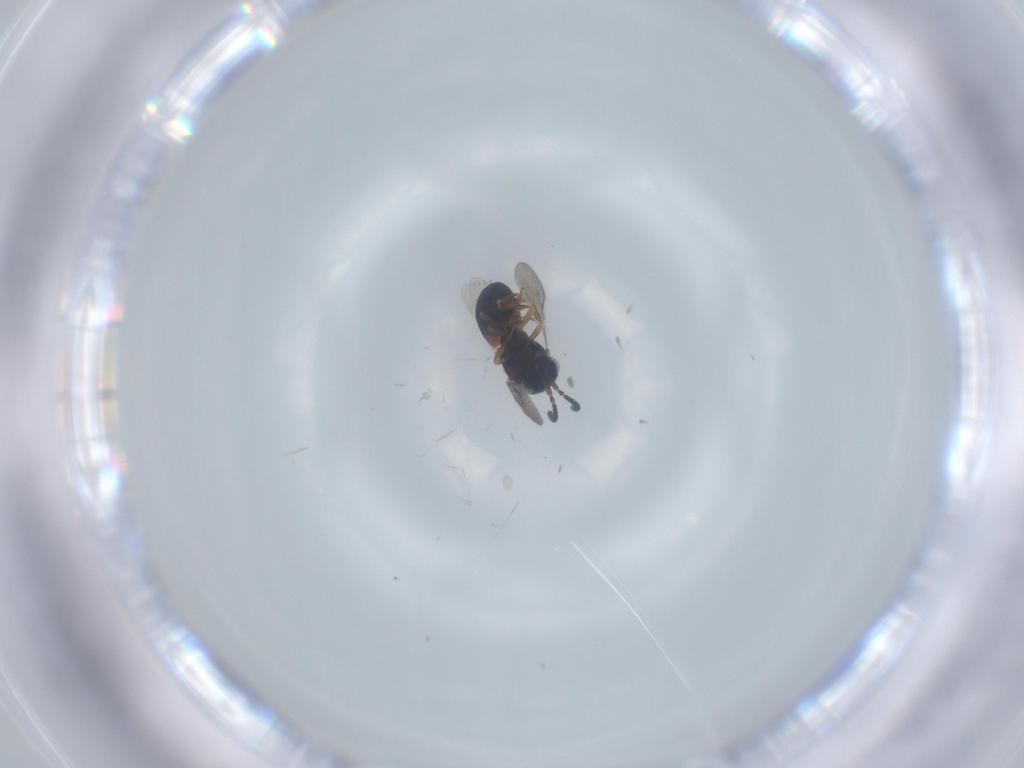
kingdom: Animalia
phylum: Arthropoda
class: Insecta
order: Hymenoptera
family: Scelionidae
